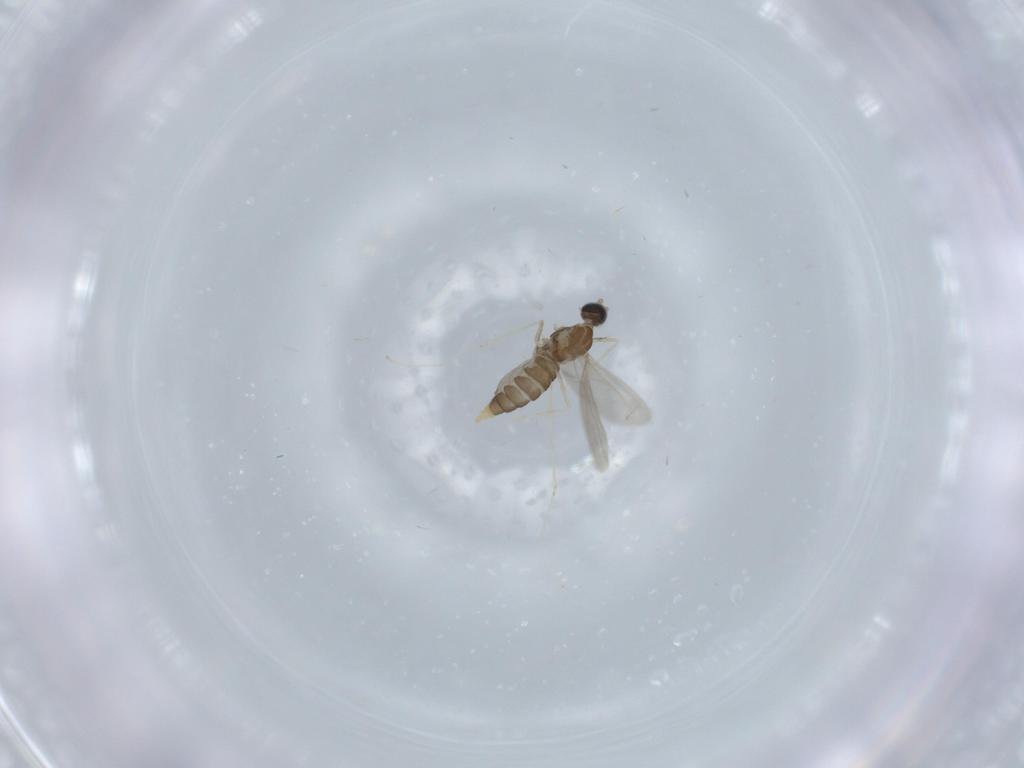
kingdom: Animalia
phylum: Arthropoda
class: Insecta
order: Diptera
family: Cecidomyiidae
